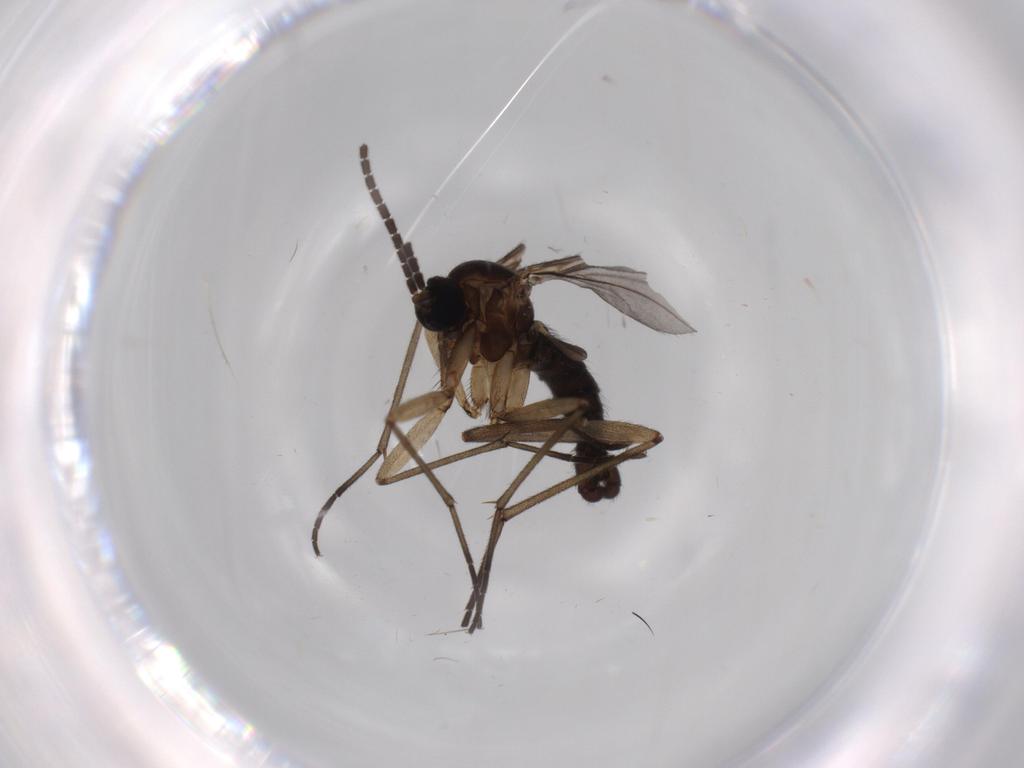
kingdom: Animalia
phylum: Arthropoda
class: Insecta
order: Diptera
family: Sciaridae
